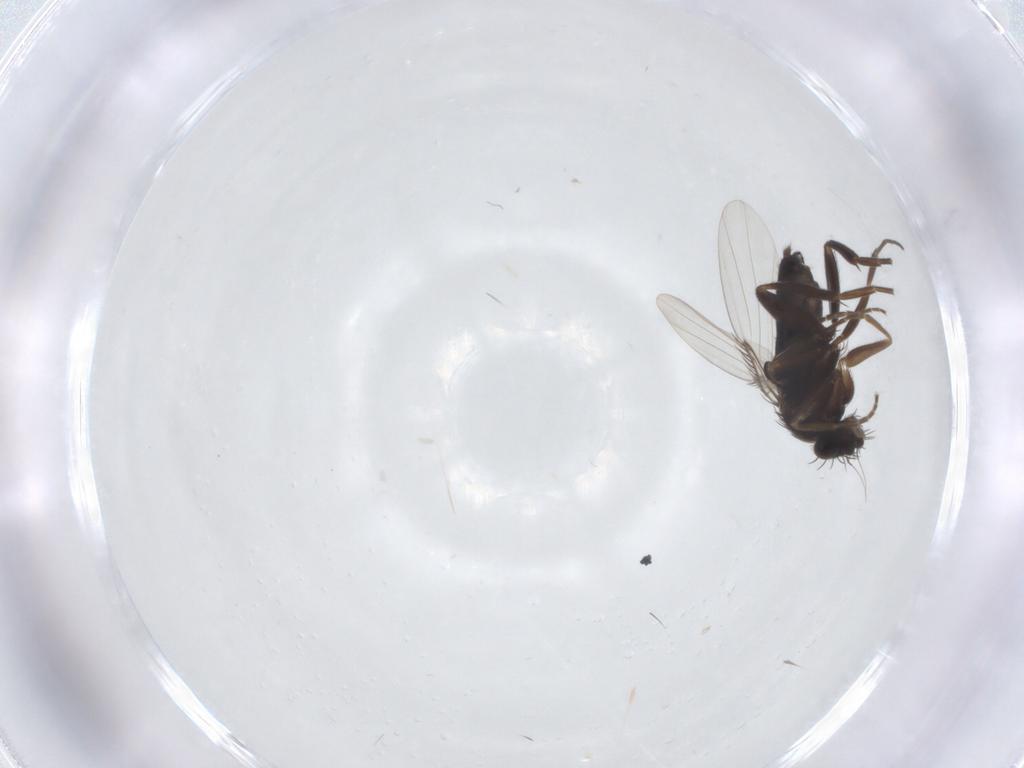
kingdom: Animalia
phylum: Arthropoda
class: Insecta
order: Diptera
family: Phoridae
